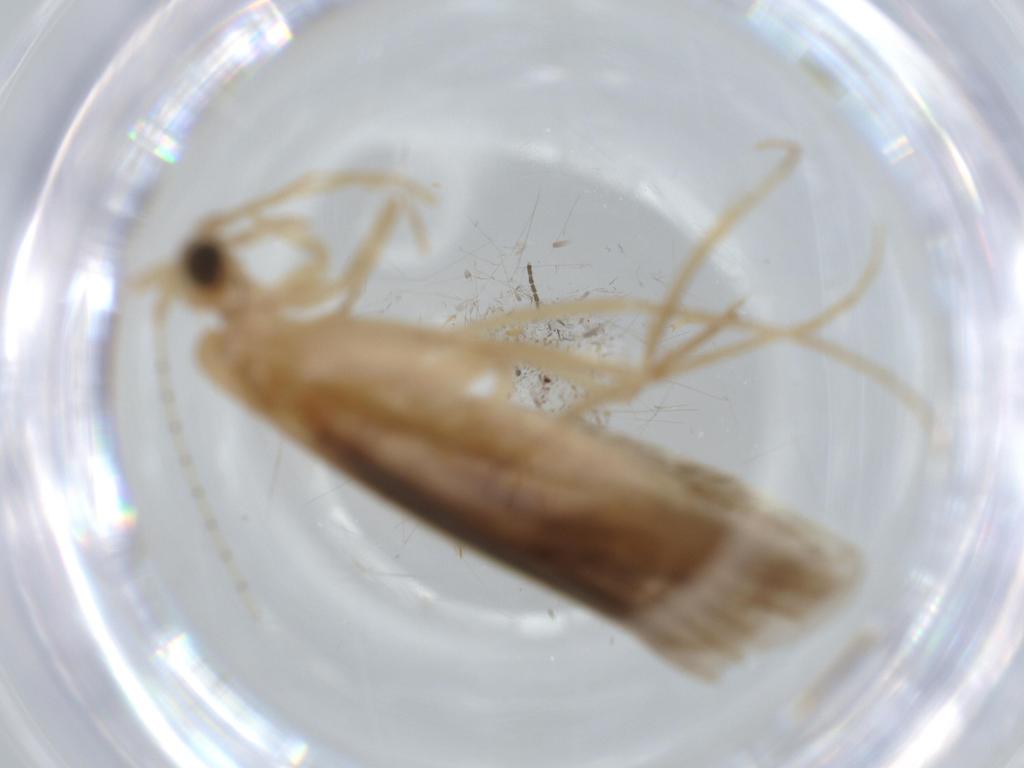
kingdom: Animalia
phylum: Arthropoda
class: Insecta
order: Trichoptera
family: Leptoceridae
